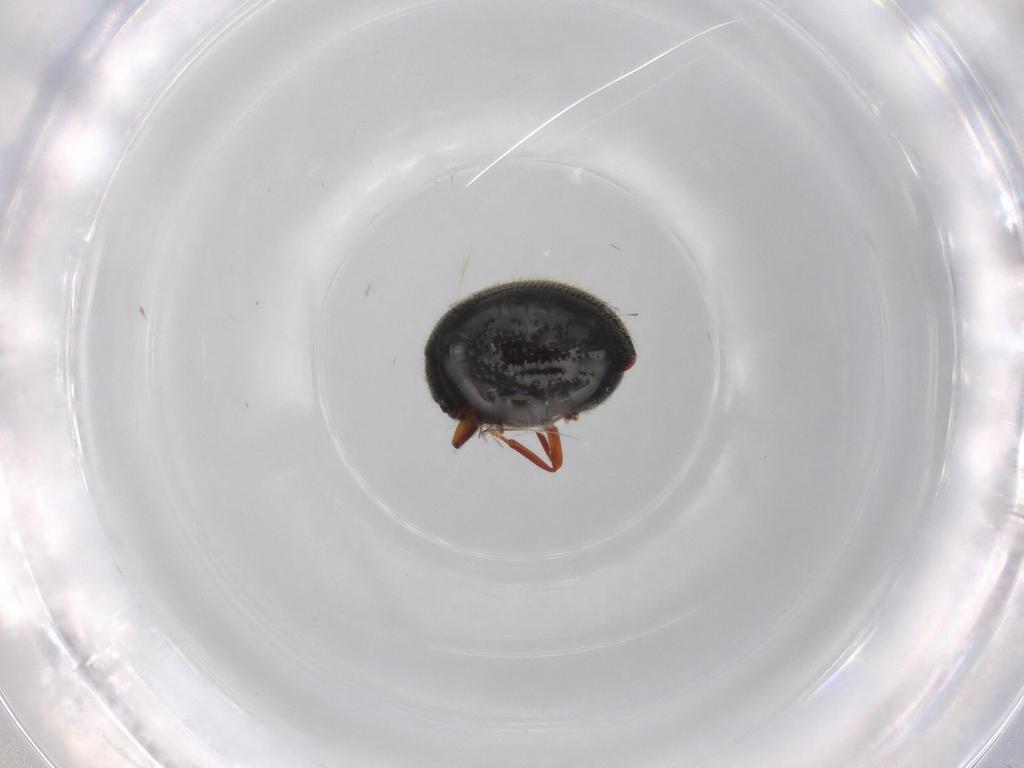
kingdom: Animalia
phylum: Arthropoda
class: Insecta
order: Coleoptera
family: Ptinidae
